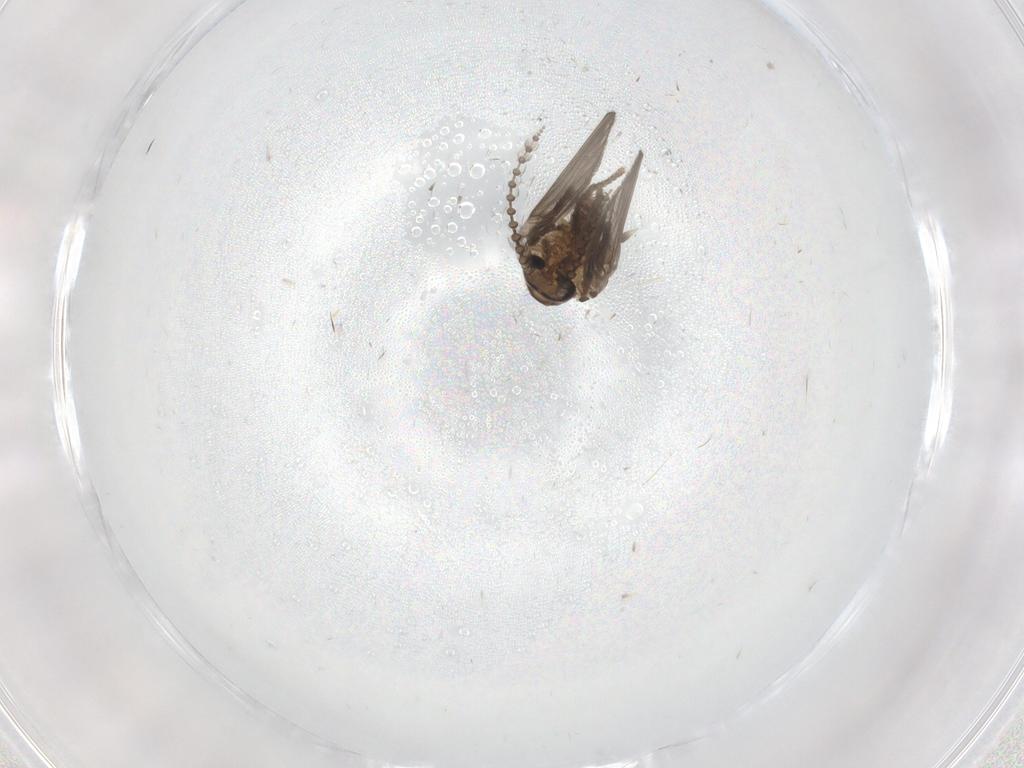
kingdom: Animalia
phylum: Arthropoda
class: Insecta
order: Diptera
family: Psychodidae
